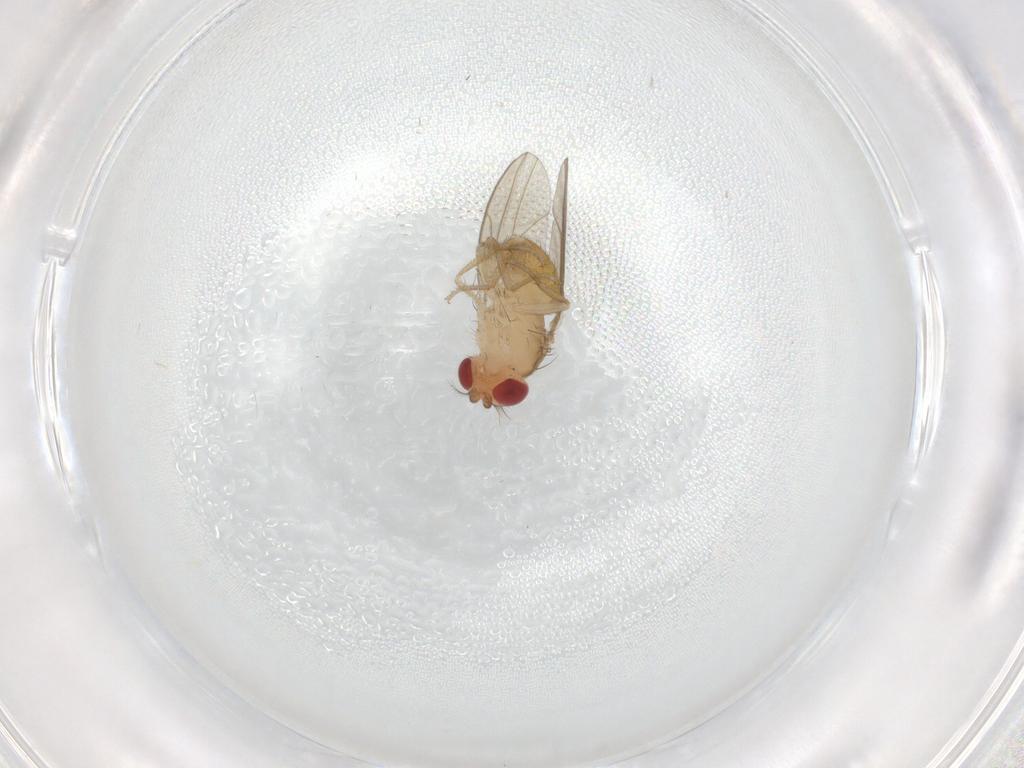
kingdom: Animalia
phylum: Arthropoda
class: Insecta
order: Diptera
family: Drosophilidae
